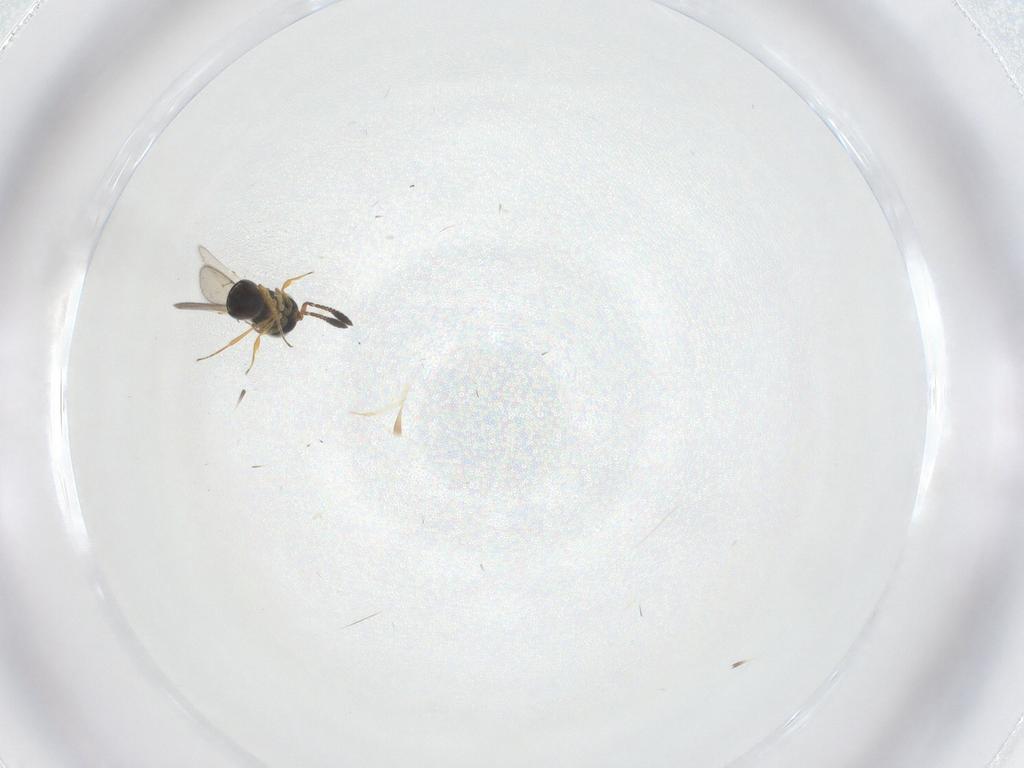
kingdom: Animalia
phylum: Arthropoda
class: Insecta
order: Hymenoptera
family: Scelionidae
